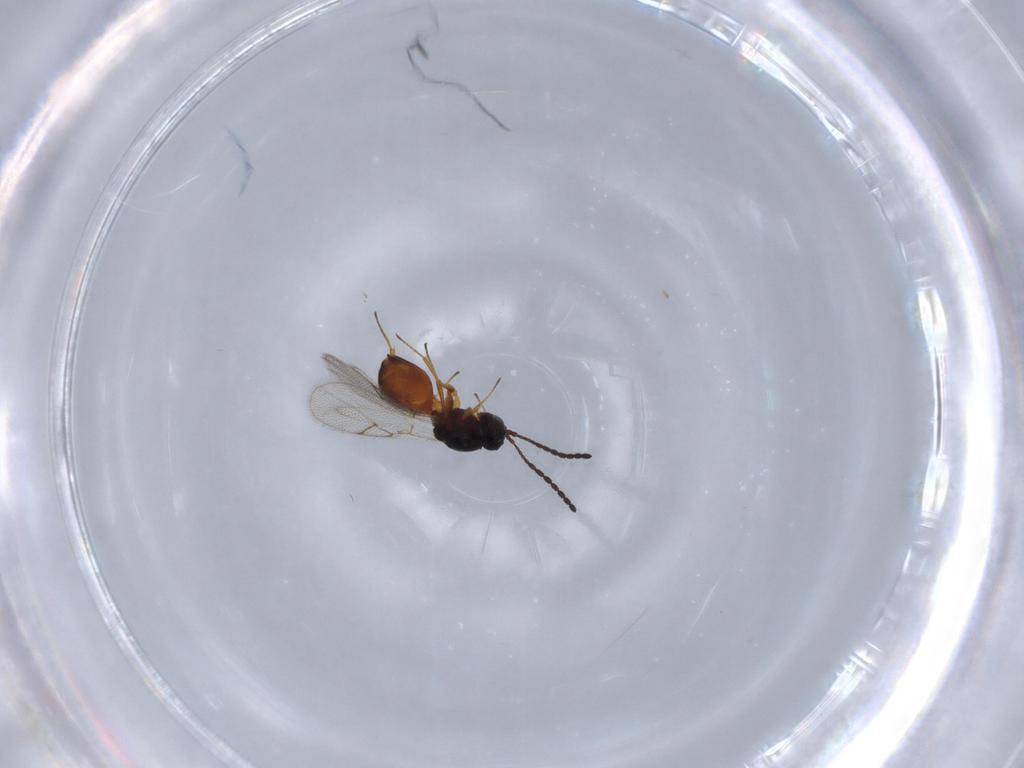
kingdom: Animalia
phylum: Arthropoda
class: Insecta
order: Hymenoptera
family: Figitidae
